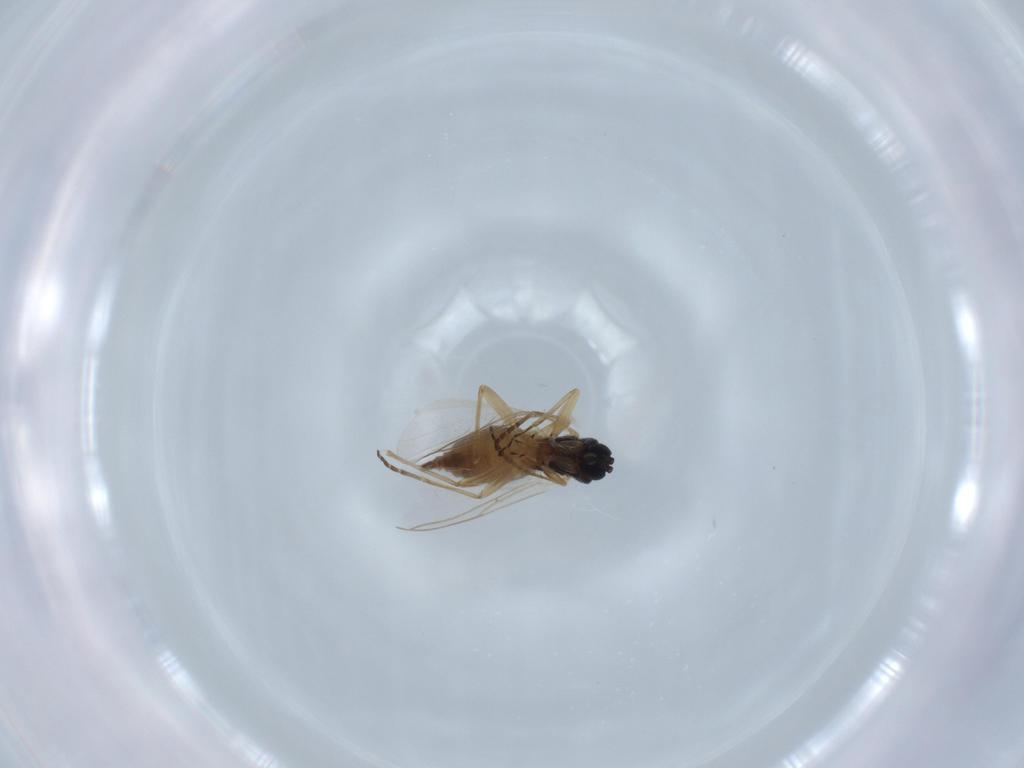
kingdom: Animalia
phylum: Arthropoda
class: Insecta
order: Diptera
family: Sciaridae
